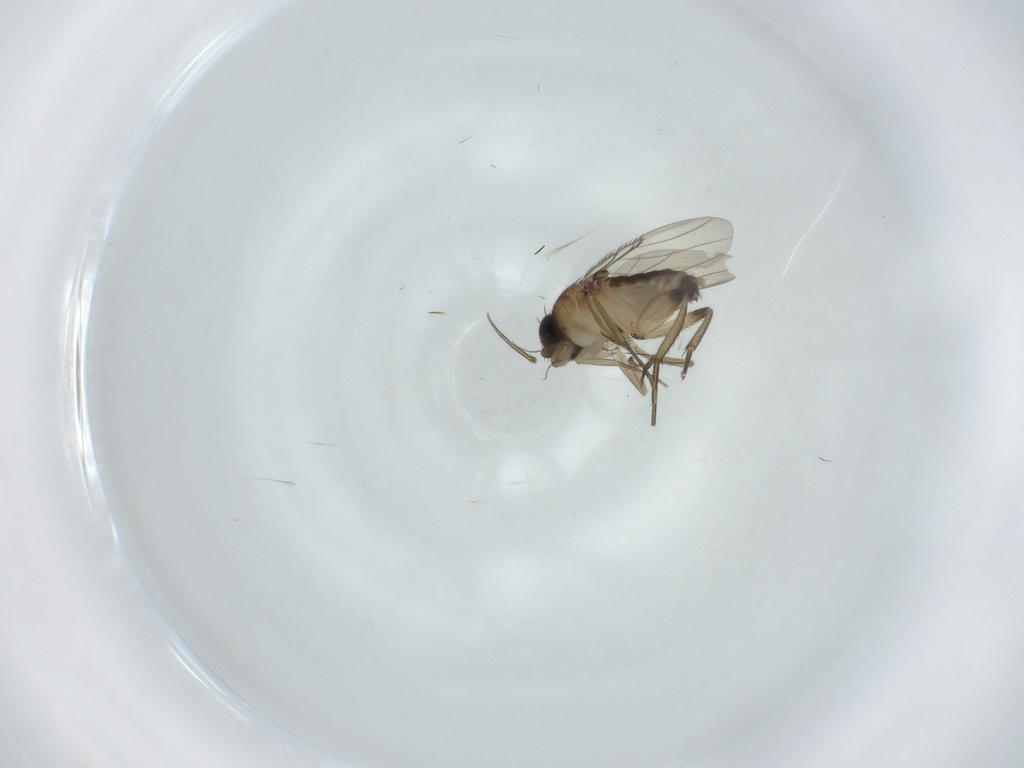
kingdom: Animalia
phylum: Arthropoda
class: Insecta
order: Diptera
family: Phoridae
